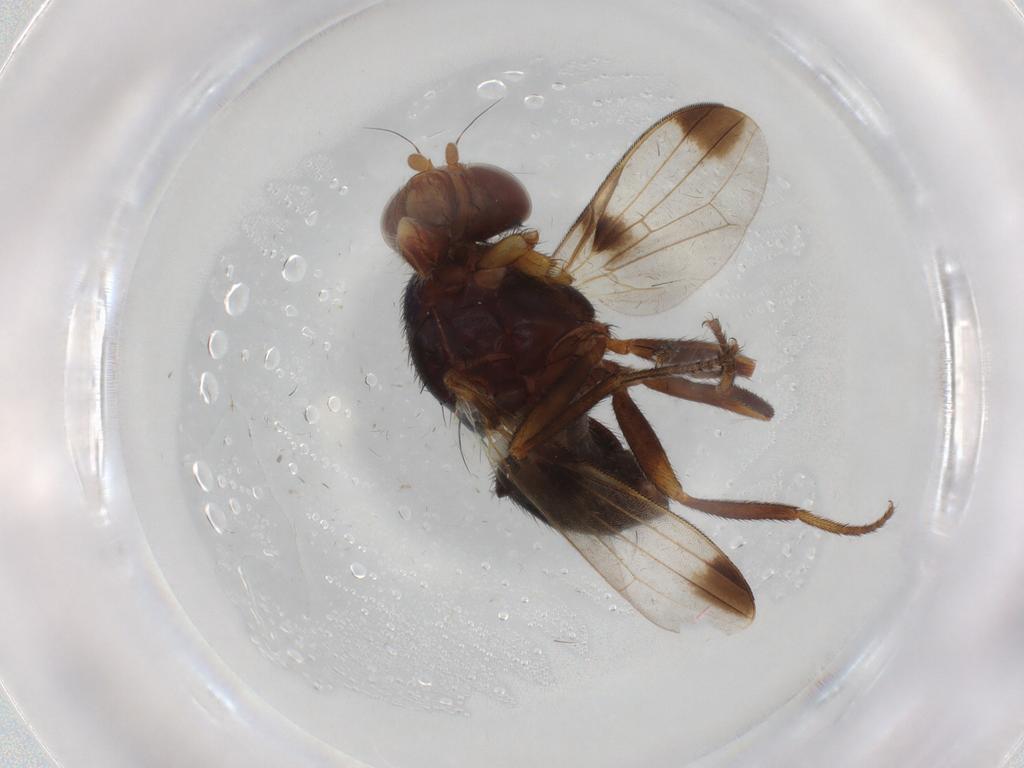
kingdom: Animalia
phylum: Arthropoda
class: Insecta
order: Diptera
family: Ulidiidae
